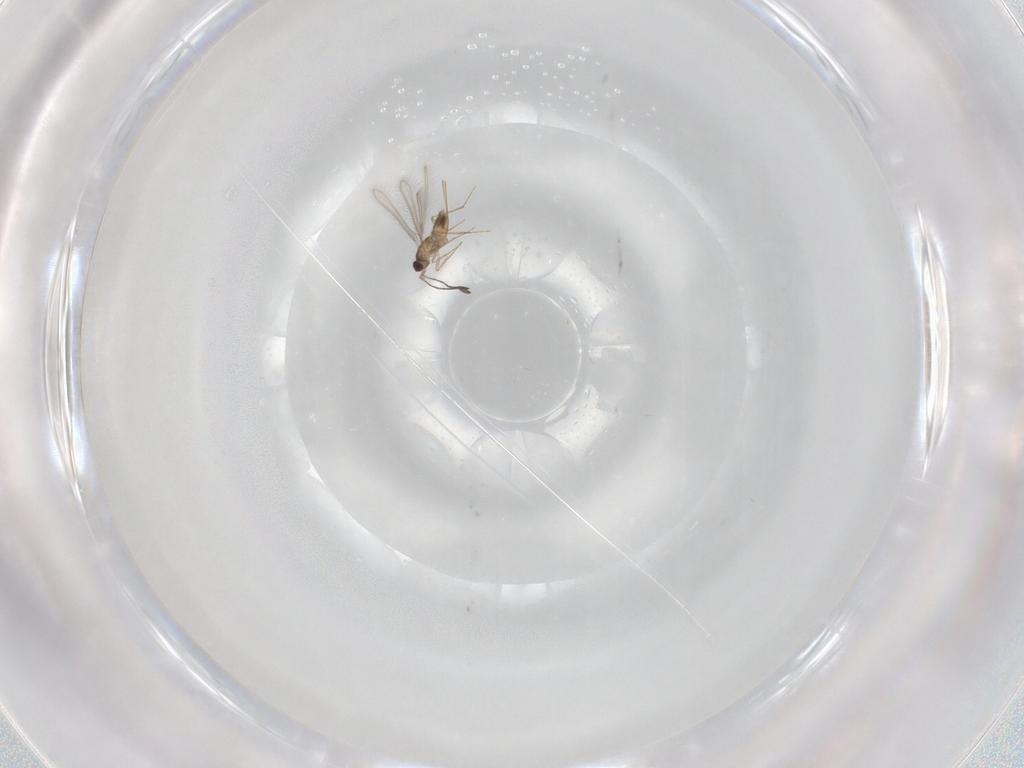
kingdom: Animalia
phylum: Arthropoda
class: Insecta
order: Hymenoptera
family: Mymaridae
